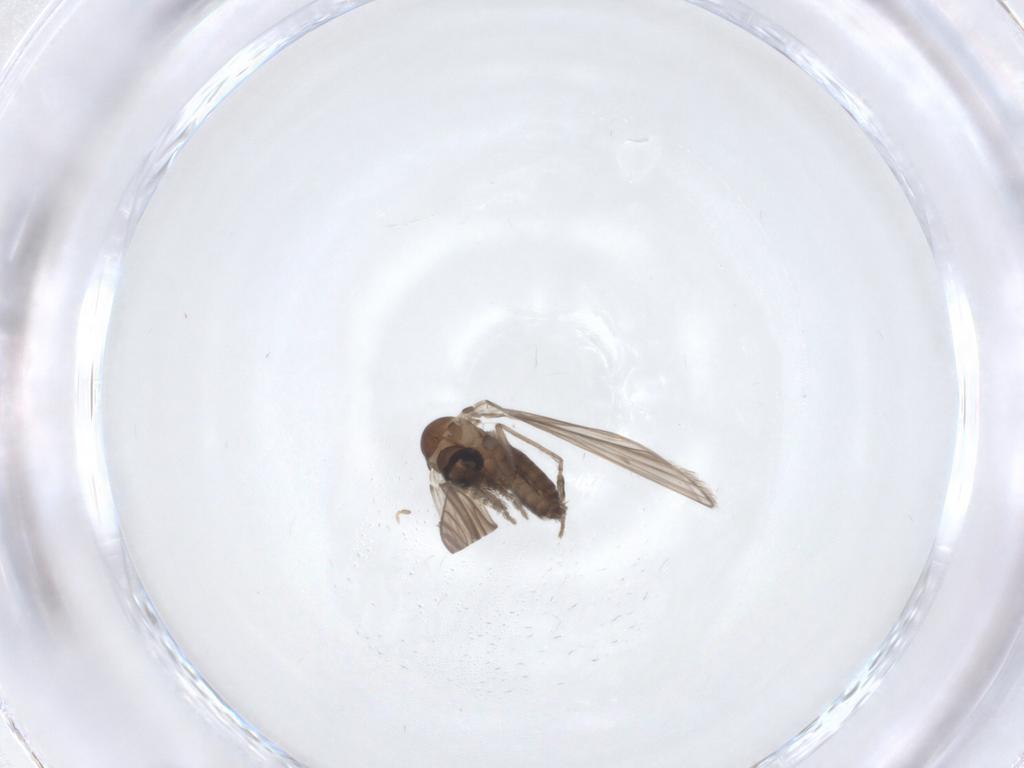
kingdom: Animalia
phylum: Arthropoda
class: Insecta
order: Diptera
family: Psychodidae
